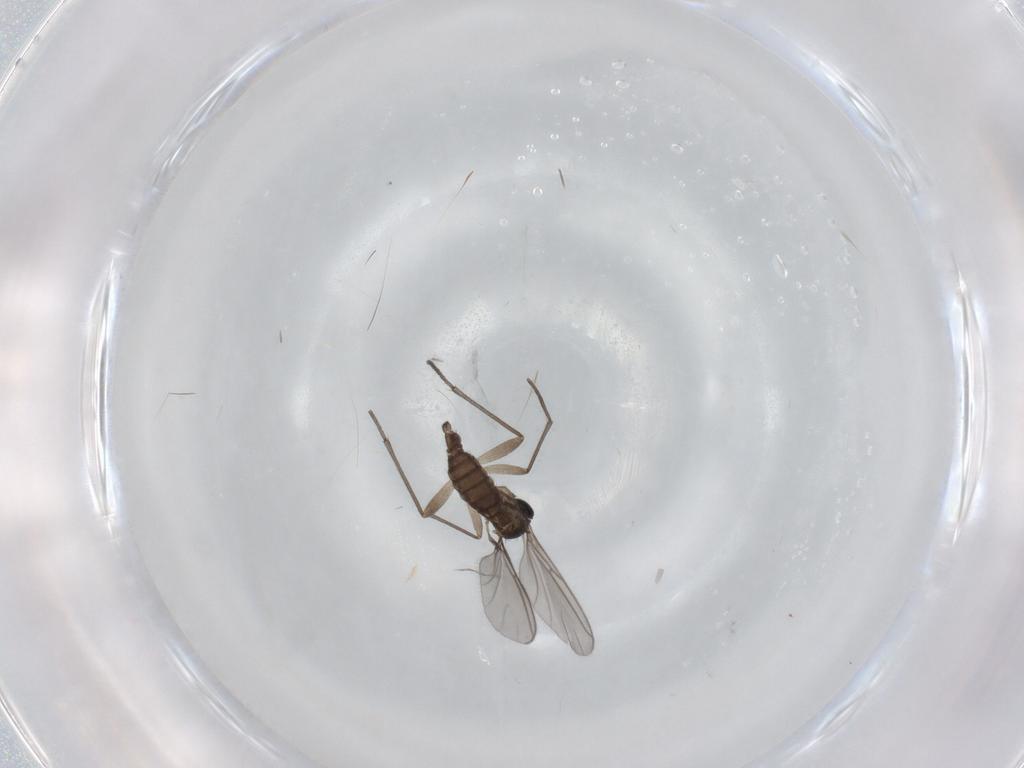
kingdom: Animalia
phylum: Arthropoda
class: Insecta
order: Diptera
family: Sciaridae
